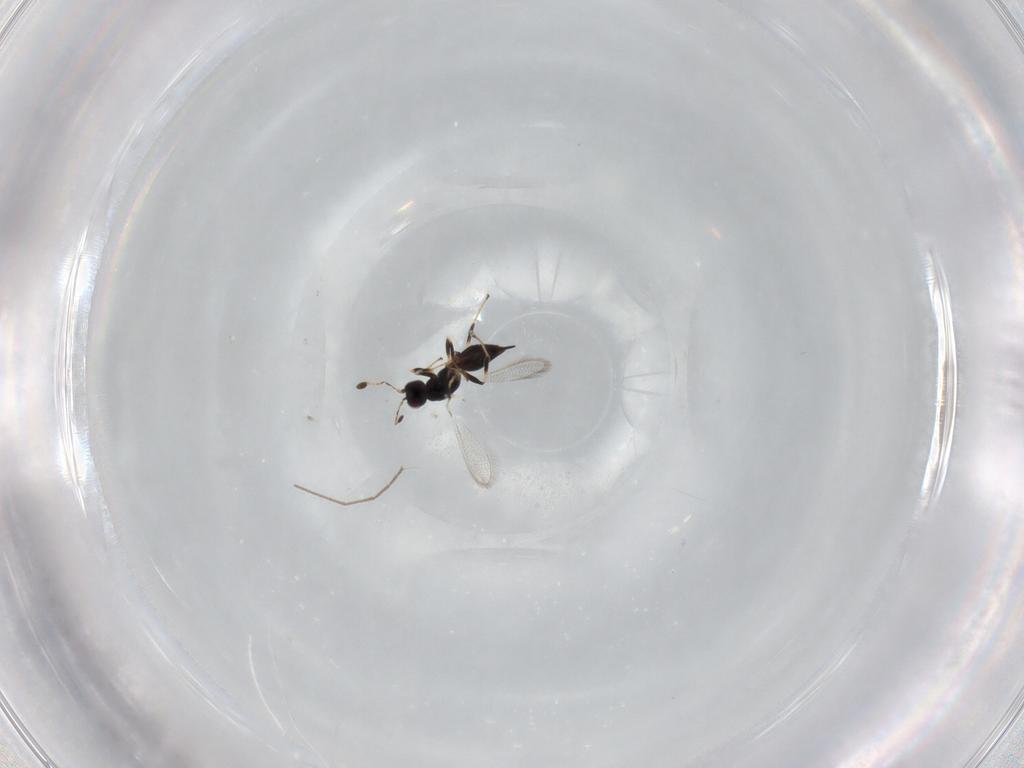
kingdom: Animalia
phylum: Arthropoda
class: Insecta
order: Hymenoptera
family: Mymaridae
